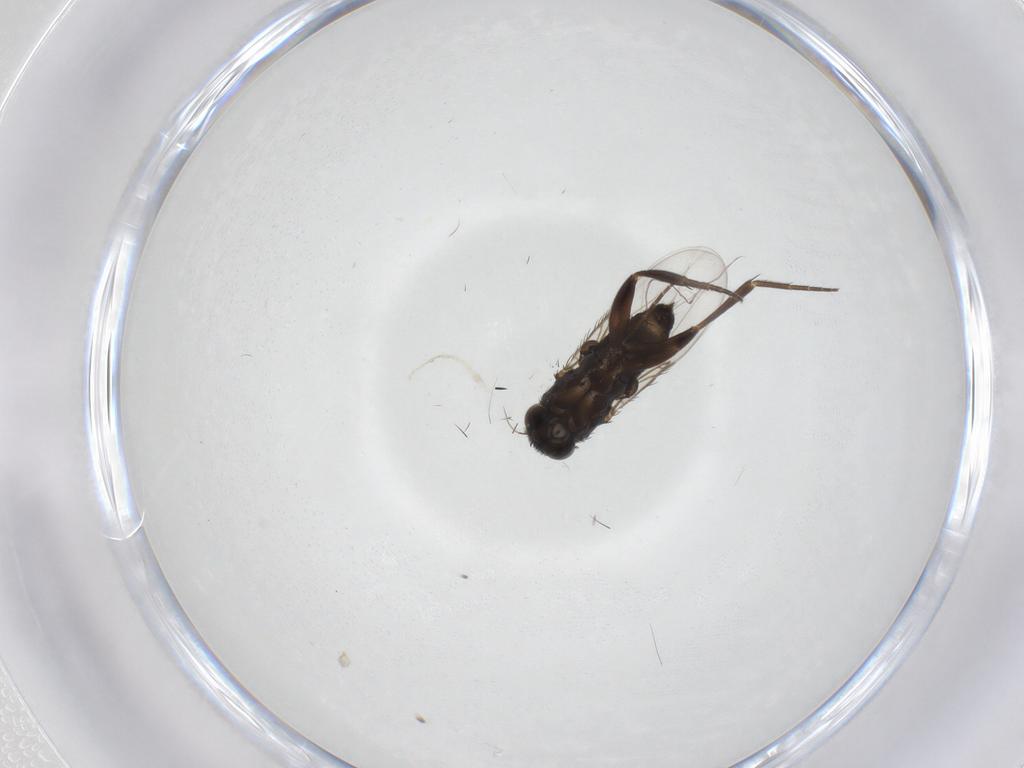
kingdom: Animalia
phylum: Arthropoda
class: Insecta
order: Diptera
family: Phoridae
